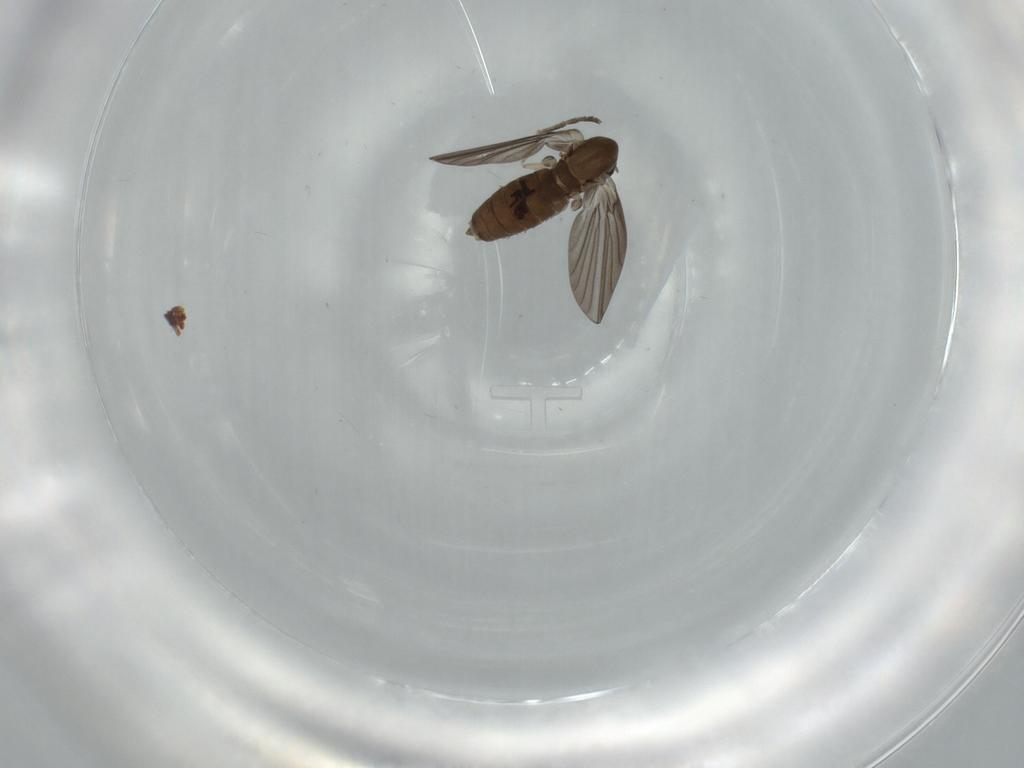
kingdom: Animalia
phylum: Arthropoda
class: Insecta
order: Diptera
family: Psychodidae
